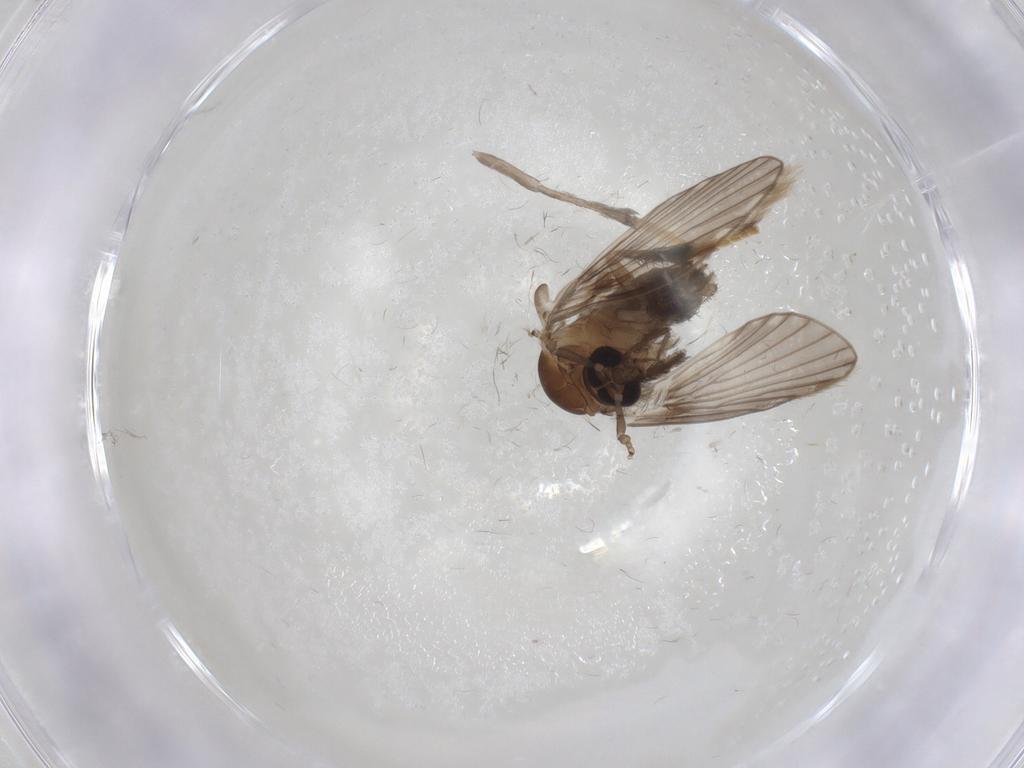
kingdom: Animalia
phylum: Arthropoda
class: Insecta
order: Diptera
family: Psychodidae
